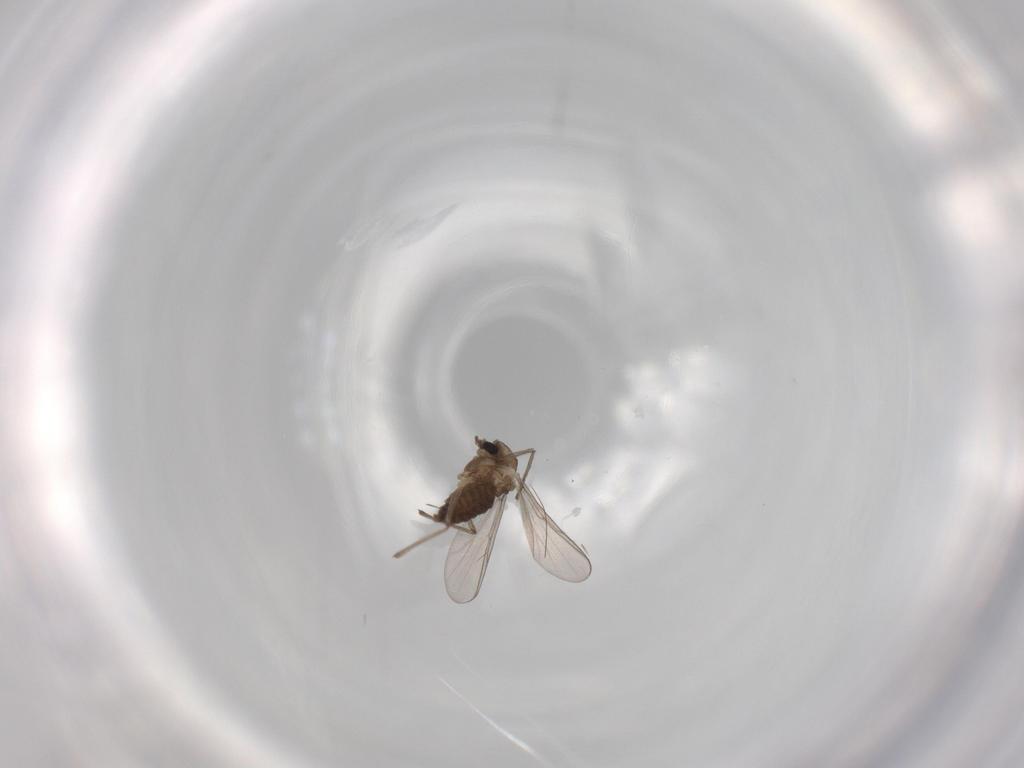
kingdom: Animalia
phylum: Arthropoda
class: Insecta
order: Diptera
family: Chironomidae
